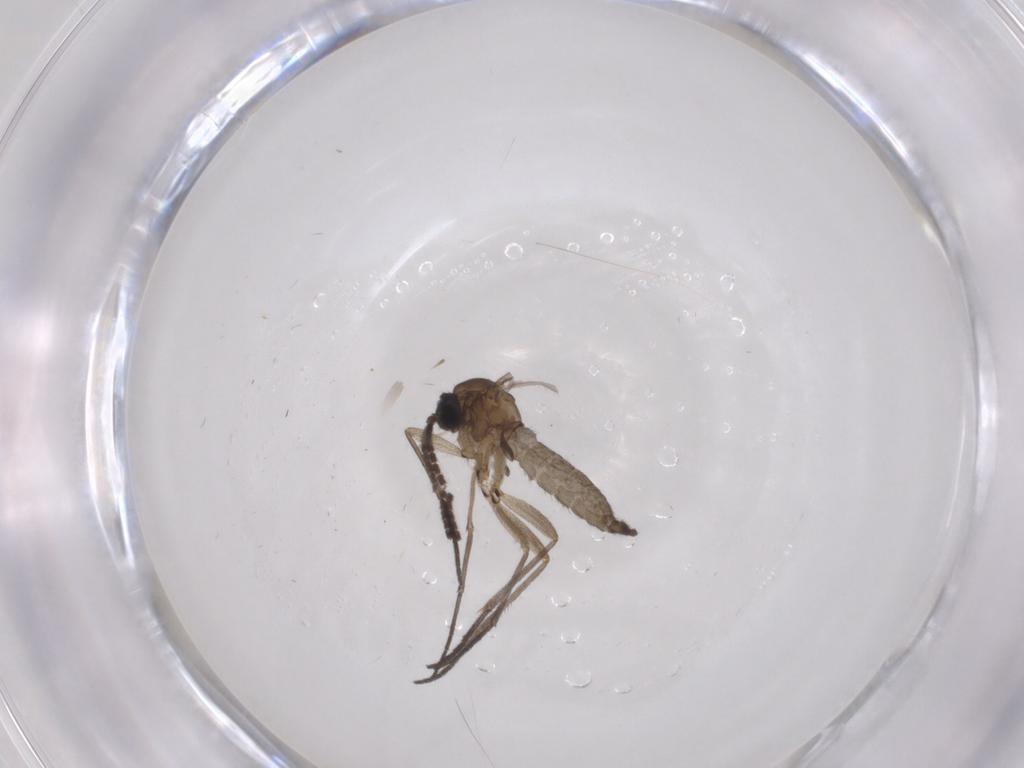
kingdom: Animalia
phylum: Arthropoda
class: Insecta
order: Diptera
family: Sciaridae
